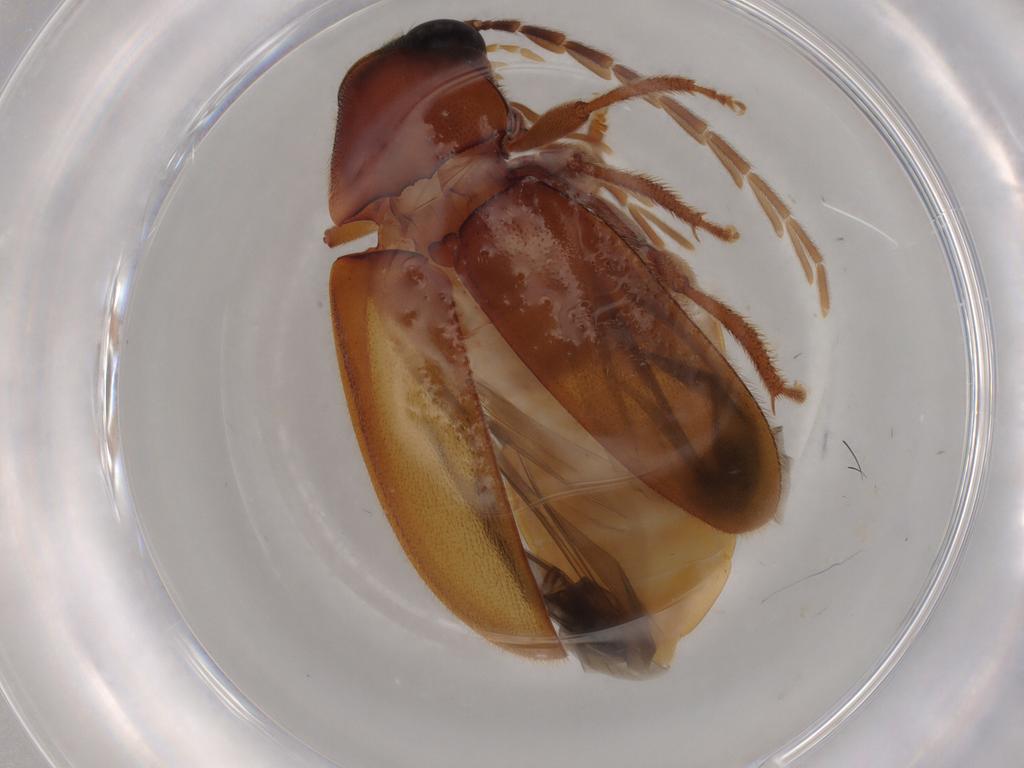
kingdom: Animalia
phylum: Arthropoda
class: Insecta
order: Coleoptera
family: Ptilodactylidae
